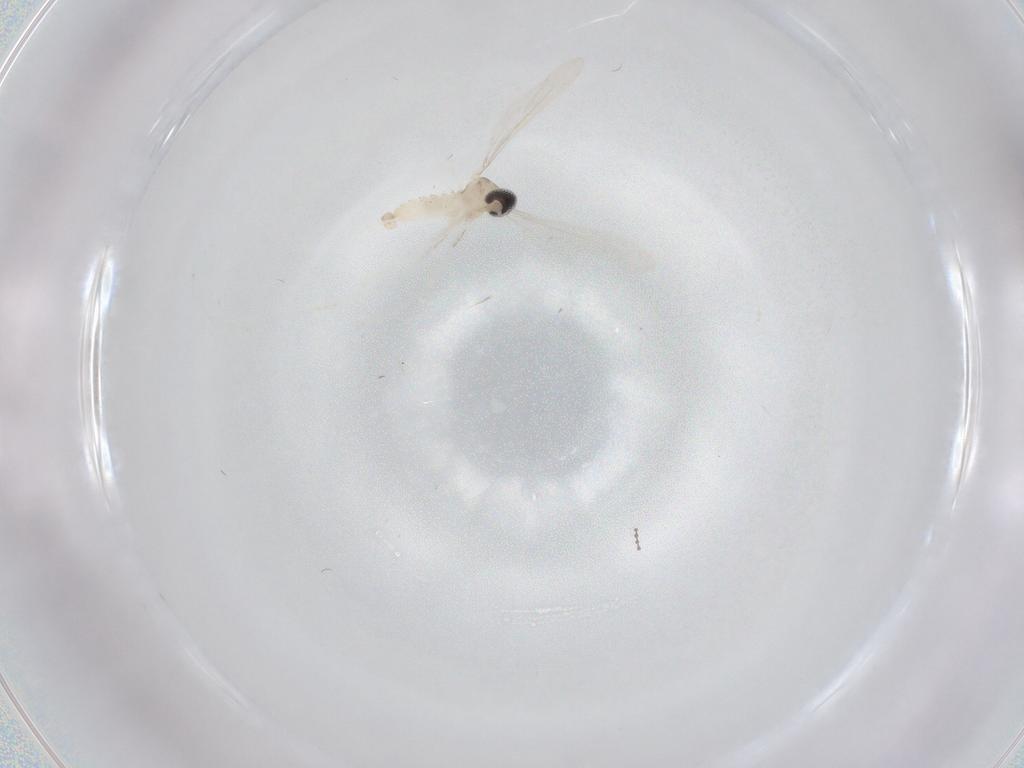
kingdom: Animalia
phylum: Arthropoda
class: Insecta
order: Diptera
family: Cecidomyiidae
